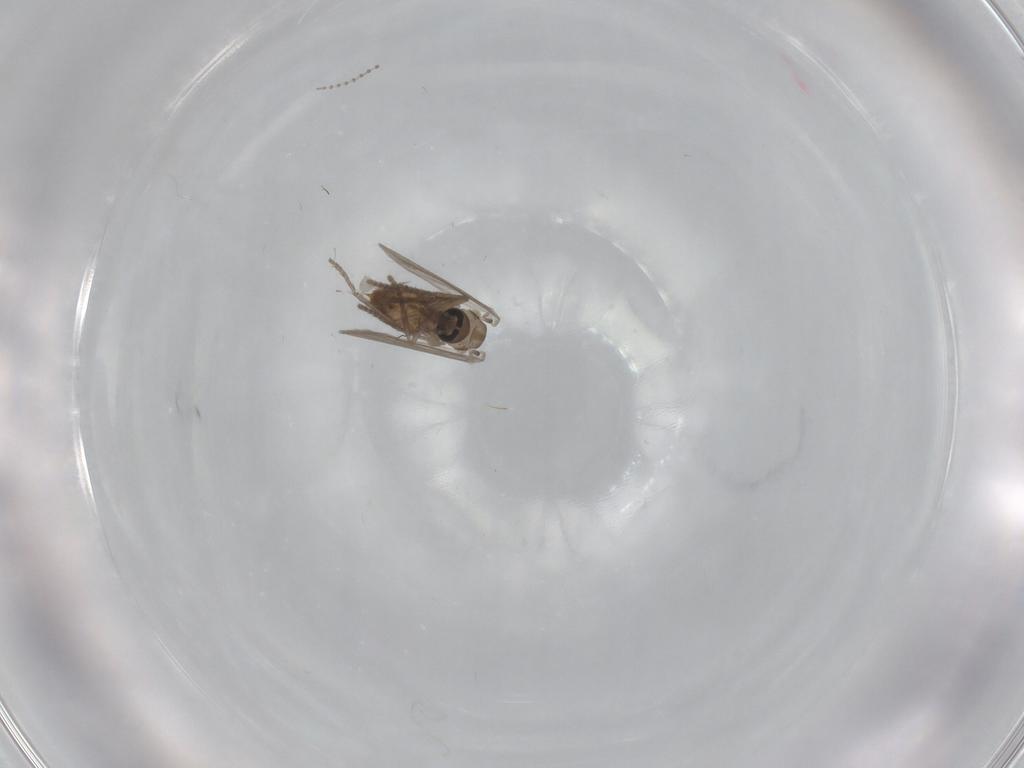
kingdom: Animalia
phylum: Arthropoda
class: Insecta
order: Diptera
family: Psychodidae
